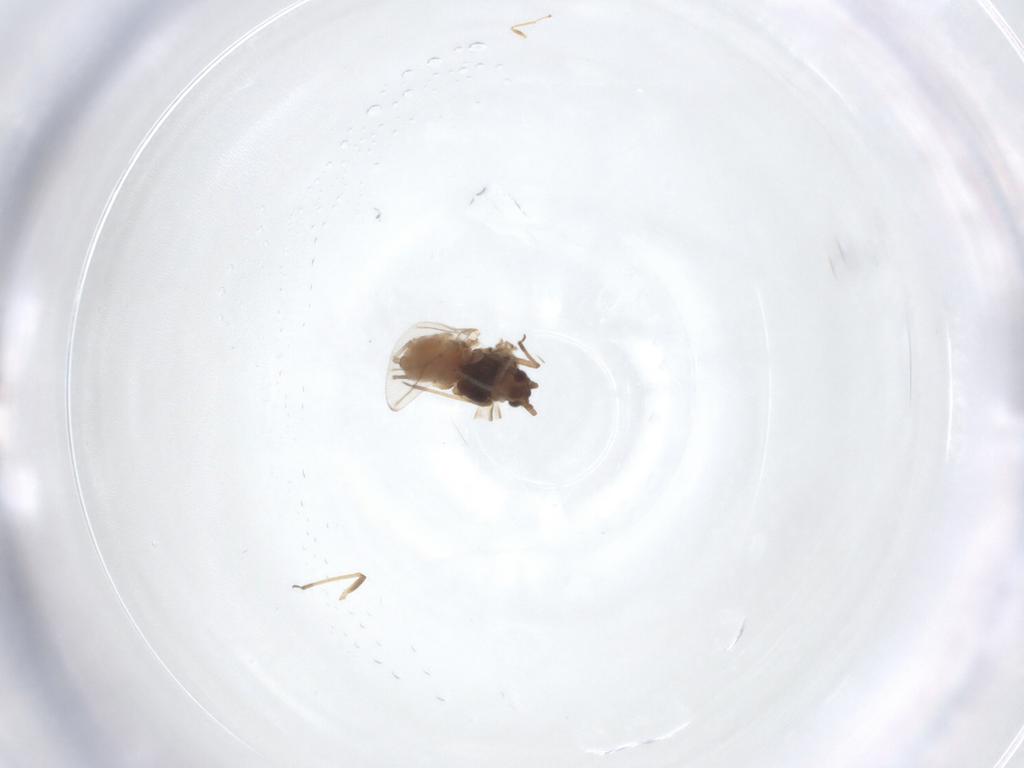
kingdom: Animalia
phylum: Arthropoda
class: Insecta
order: Hemiptera
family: Aphididae
